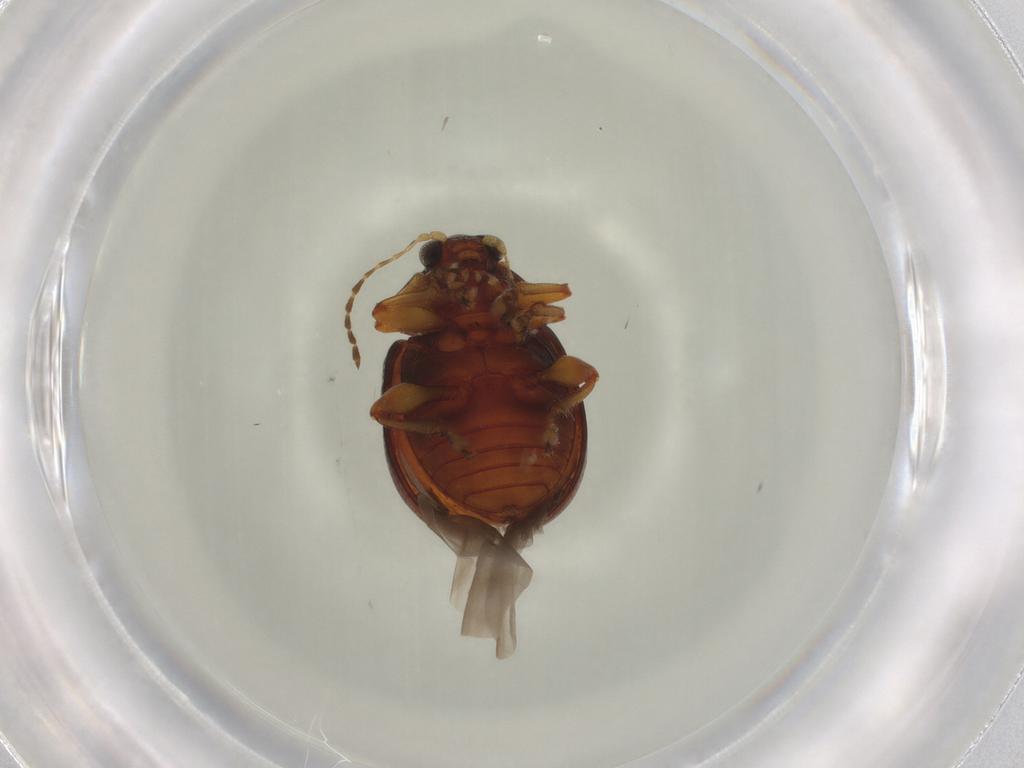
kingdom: Animalia
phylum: Arthropoda
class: Insecta
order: Coleoptera
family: Chrysomelidae
